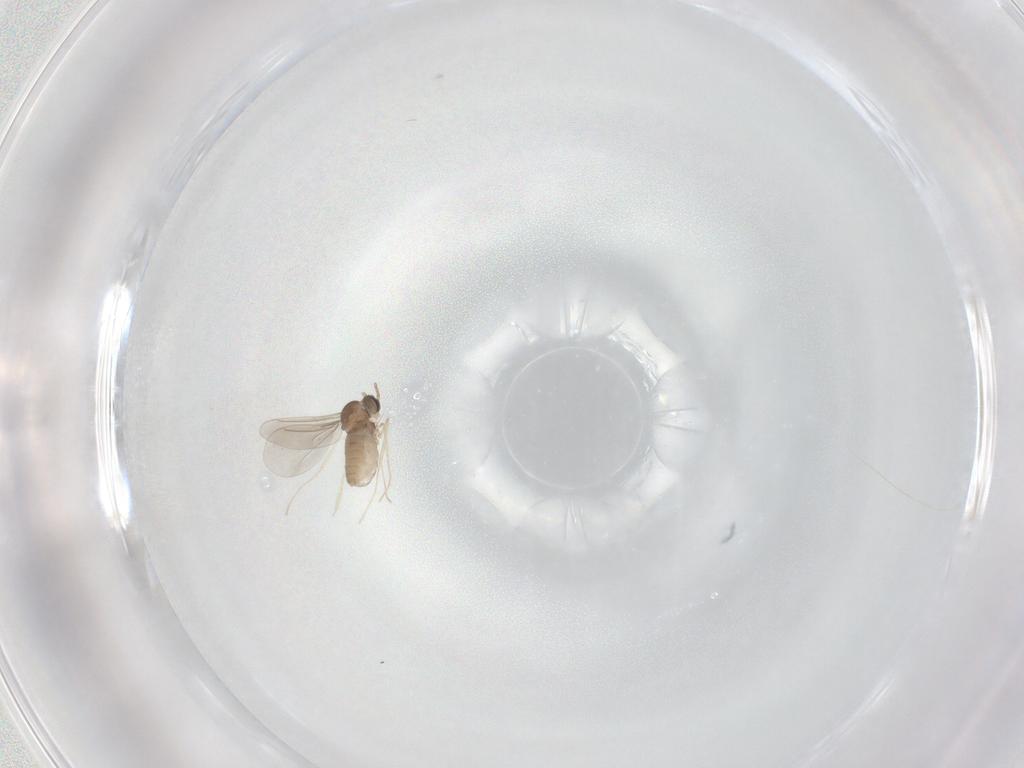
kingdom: Animalia
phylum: Arthropoda
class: Insecta
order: Diptera
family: Cecidomyiidae
